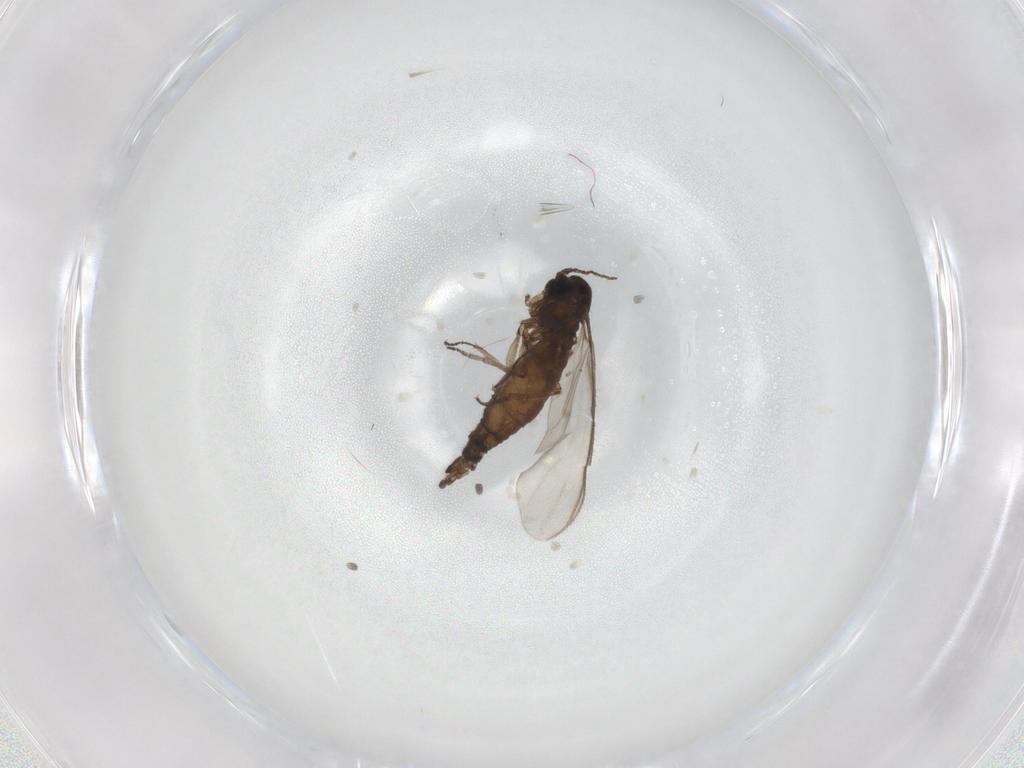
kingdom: Animalia
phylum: Arthropoda
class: Insecta
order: Diptera
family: Sciaridae
